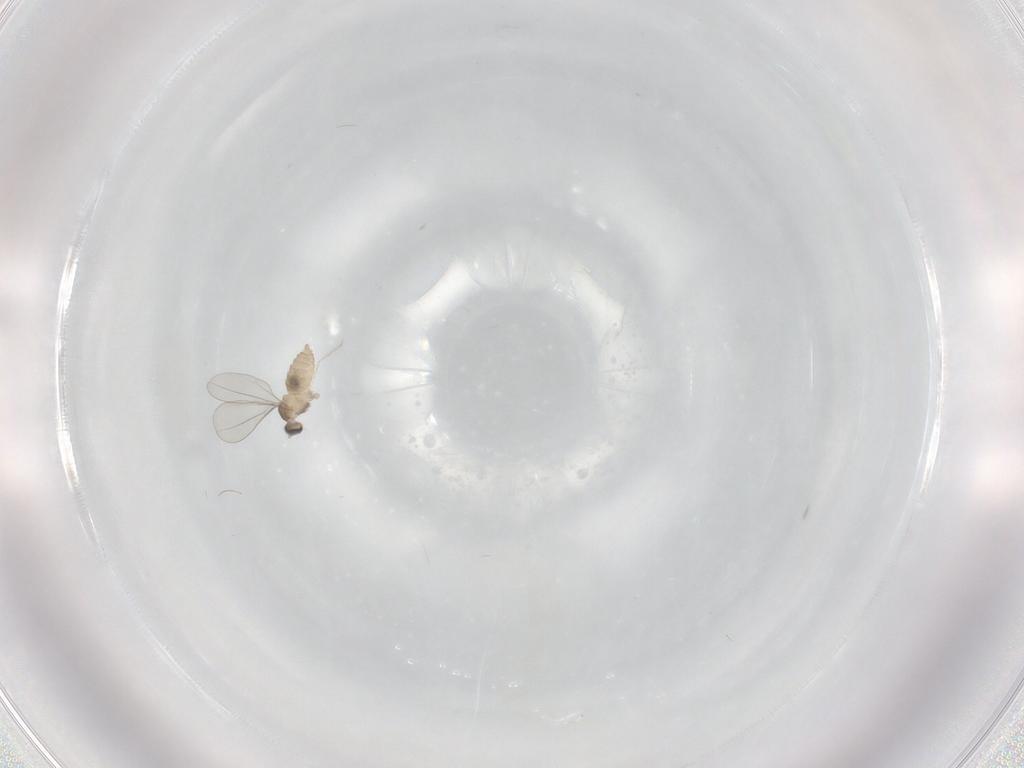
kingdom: Animalia
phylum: Arthropoda
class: Insecta
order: Diptera
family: Cecidomyiidae
